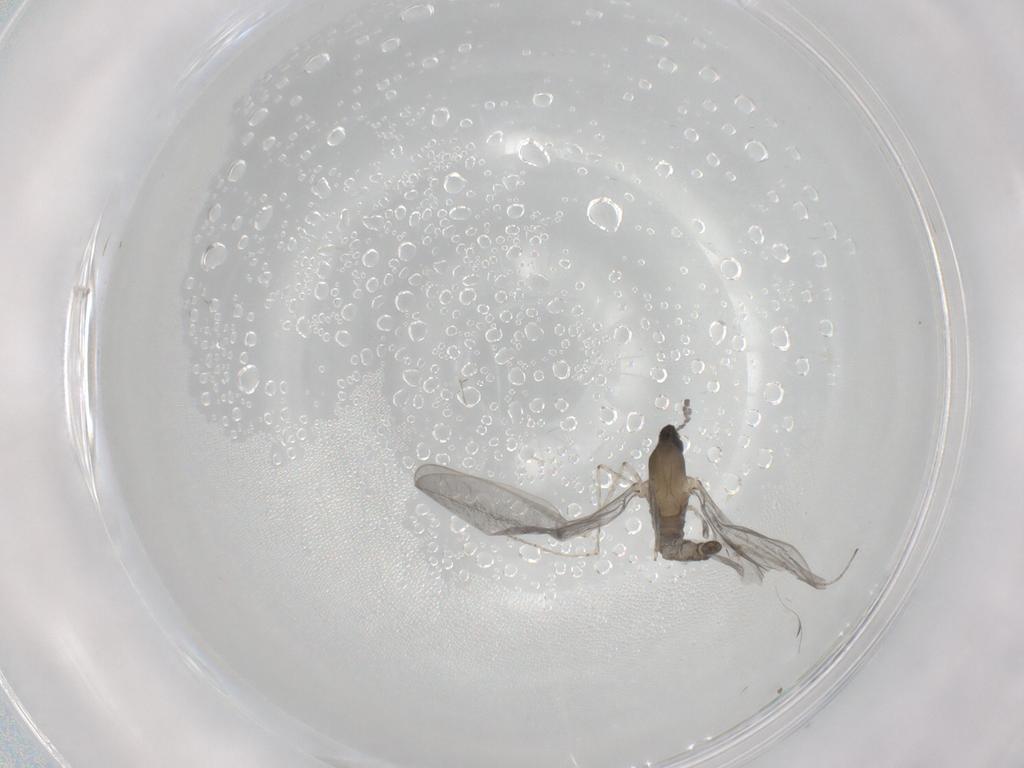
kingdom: Animalia
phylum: Arthropoda
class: Insecta
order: Diptera
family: Cecidomyiidae
